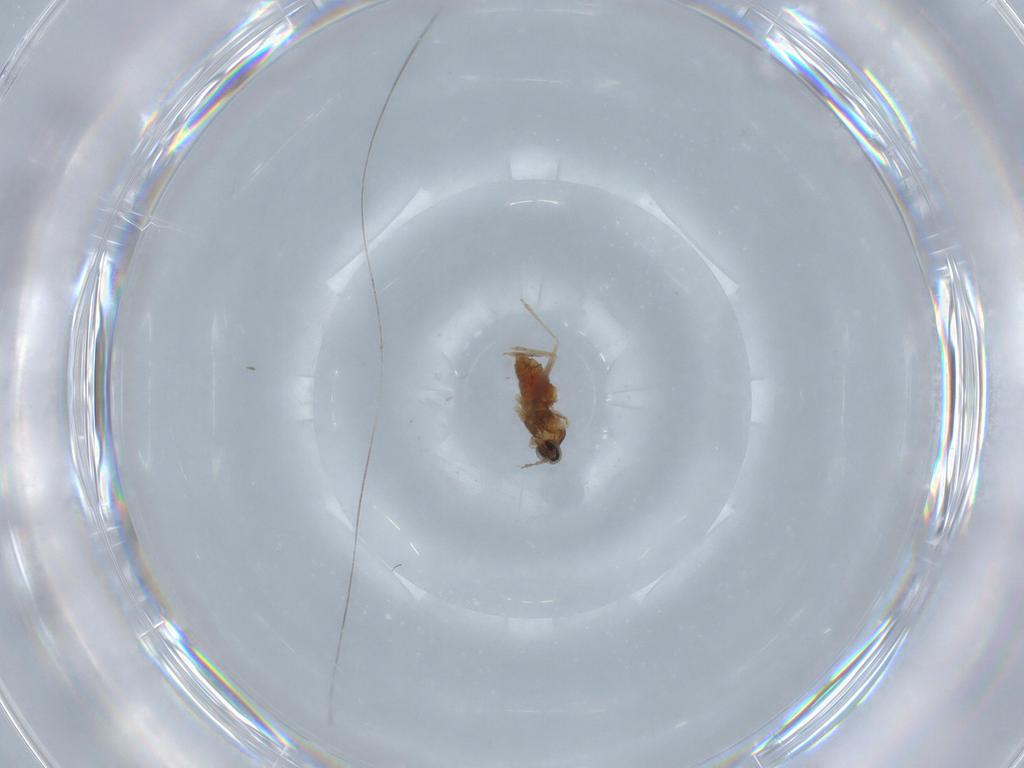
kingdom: Animalia
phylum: Arthropoda
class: Insecta
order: Diptera
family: Cecidomyiidae
